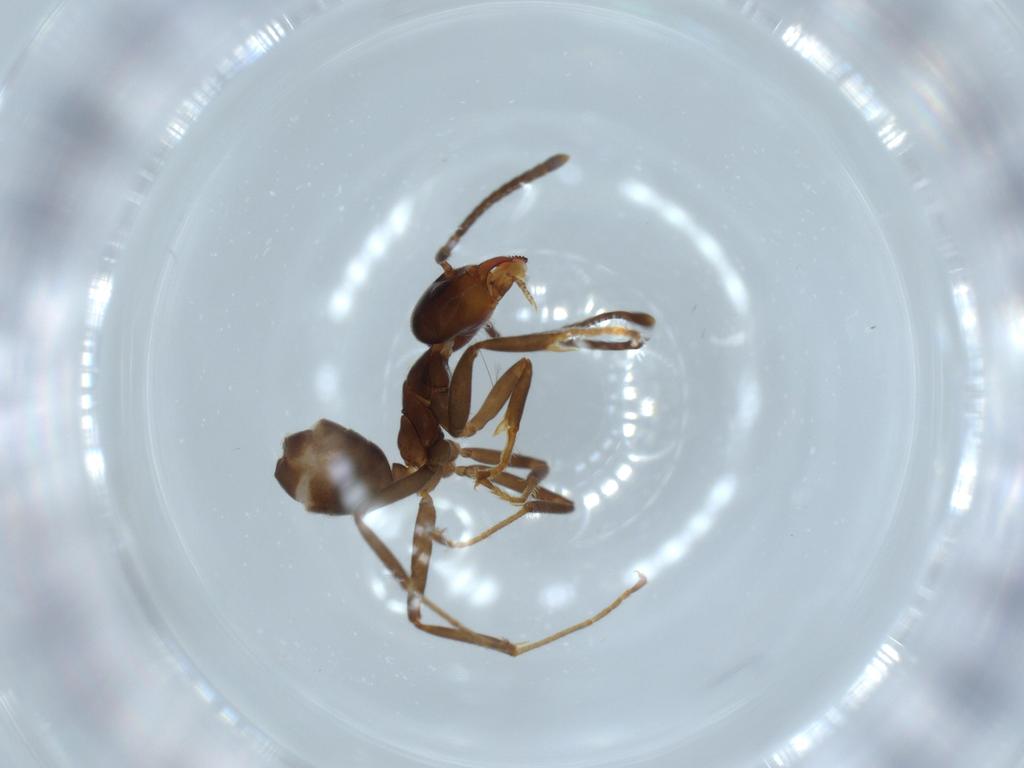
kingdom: Animalia
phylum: Arthropoda
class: Insecta
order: Hymenoptera
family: Formicidae
